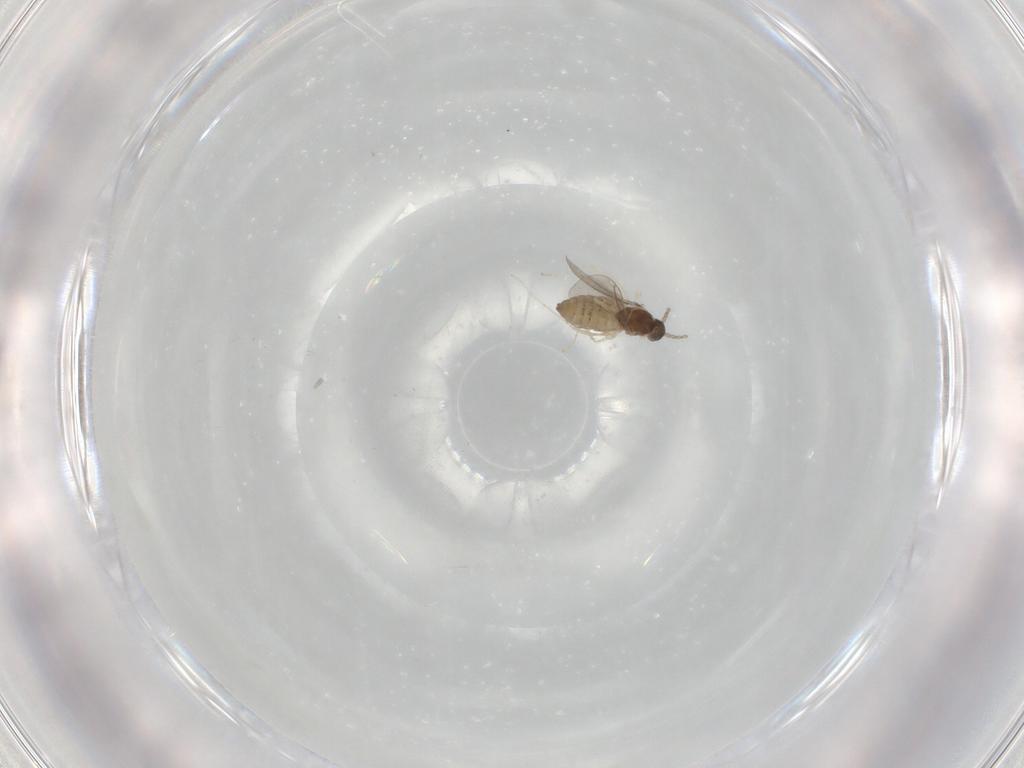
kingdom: Animalia
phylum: Arthropoda
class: Insecta
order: Diptera
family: Cecidomyiidae
